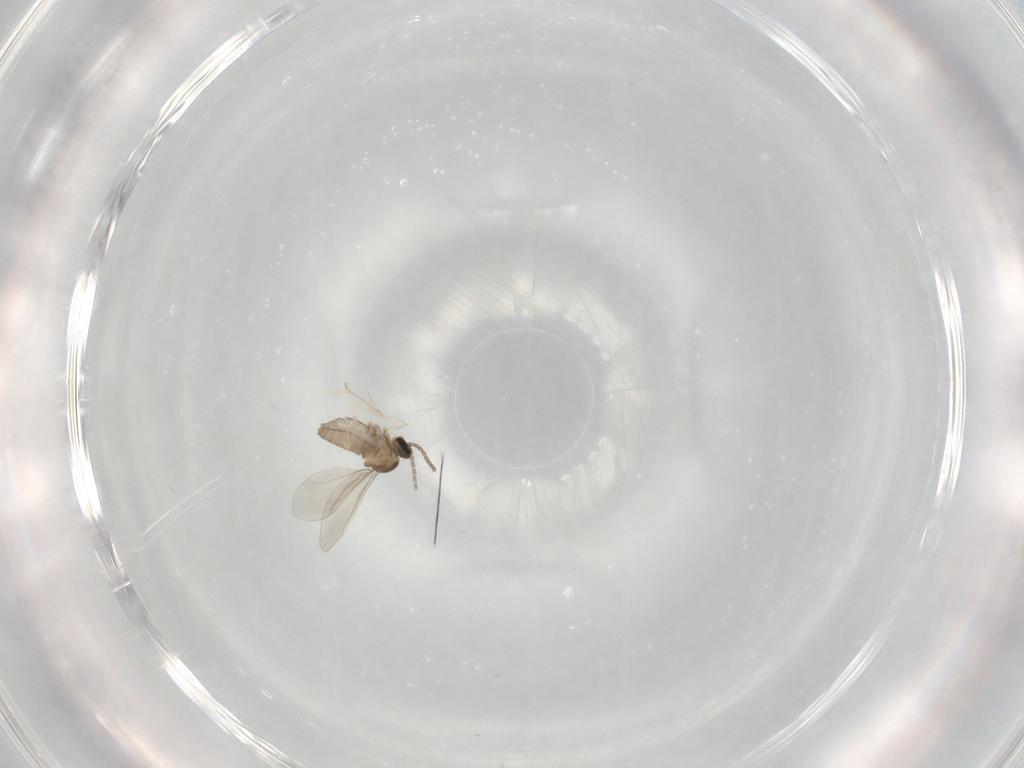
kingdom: Animalia
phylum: Arthropoda
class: Insecta
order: Diptera
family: Cecidomyiidae
